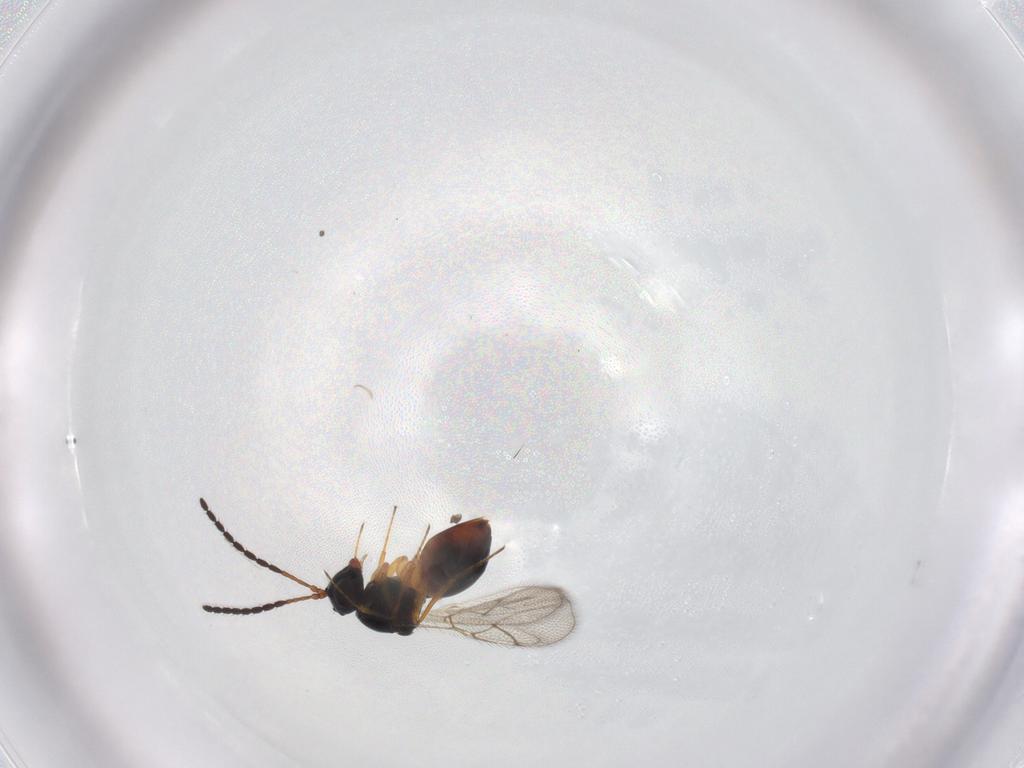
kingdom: Animalia
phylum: Arthropoda
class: Insecta
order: Hymenoptera
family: Figitidae
